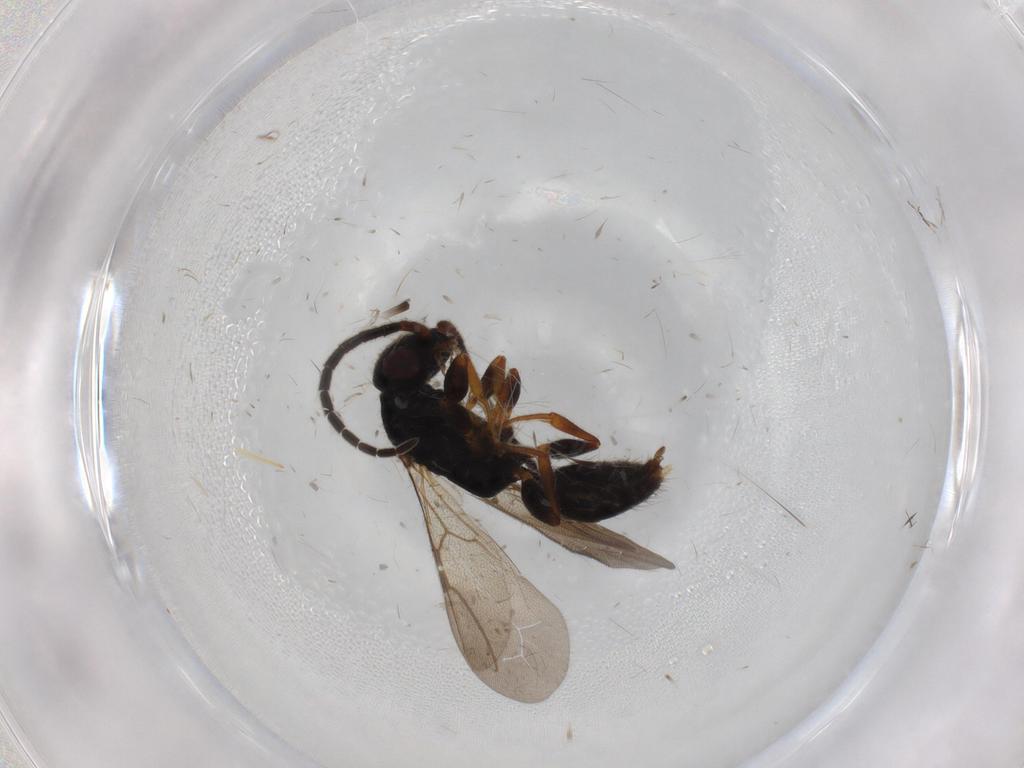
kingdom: Animalia
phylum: Arthropoda
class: Insecta
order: Hymenoptera
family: Bethylidae
